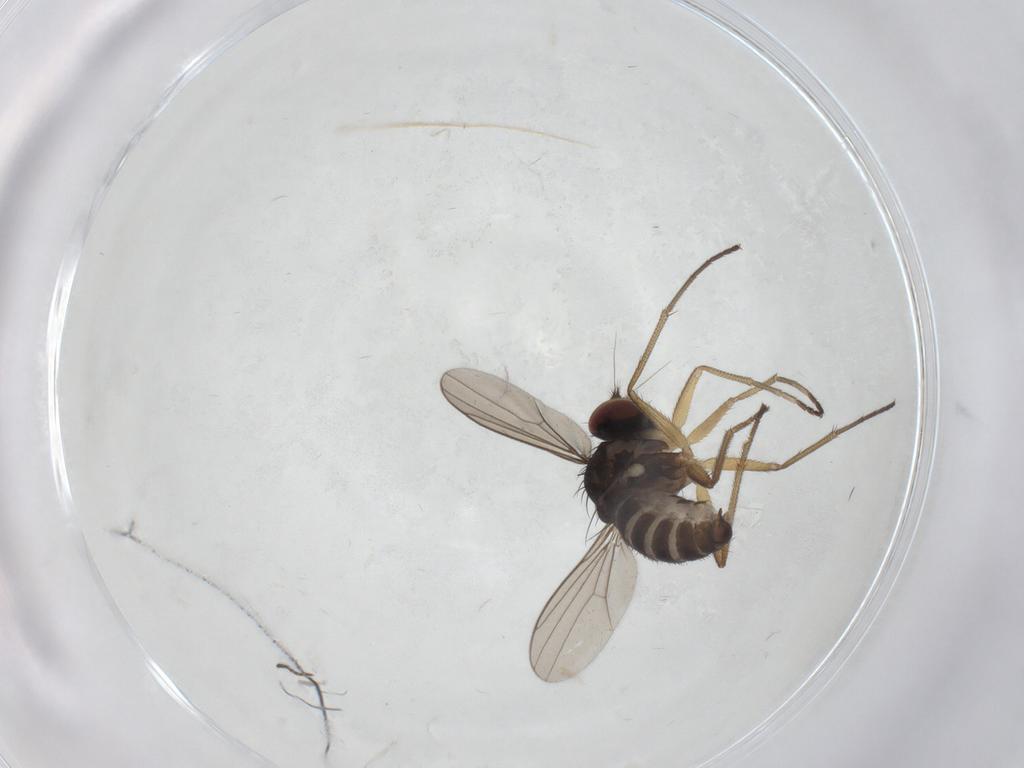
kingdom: Animalia
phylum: Arthropoda
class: Insecta
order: Diptera
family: Dolichopodidae
